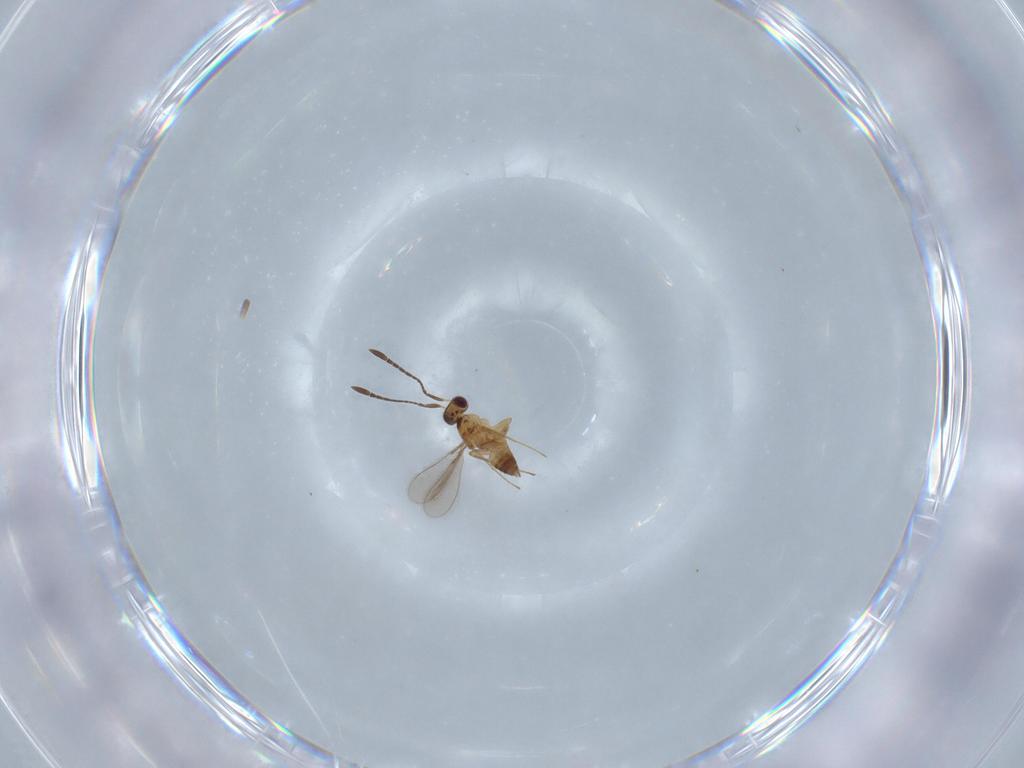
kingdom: Animalia
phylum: Arthropoda
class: Insecta
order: Hymenoptera
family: Mymaridae
